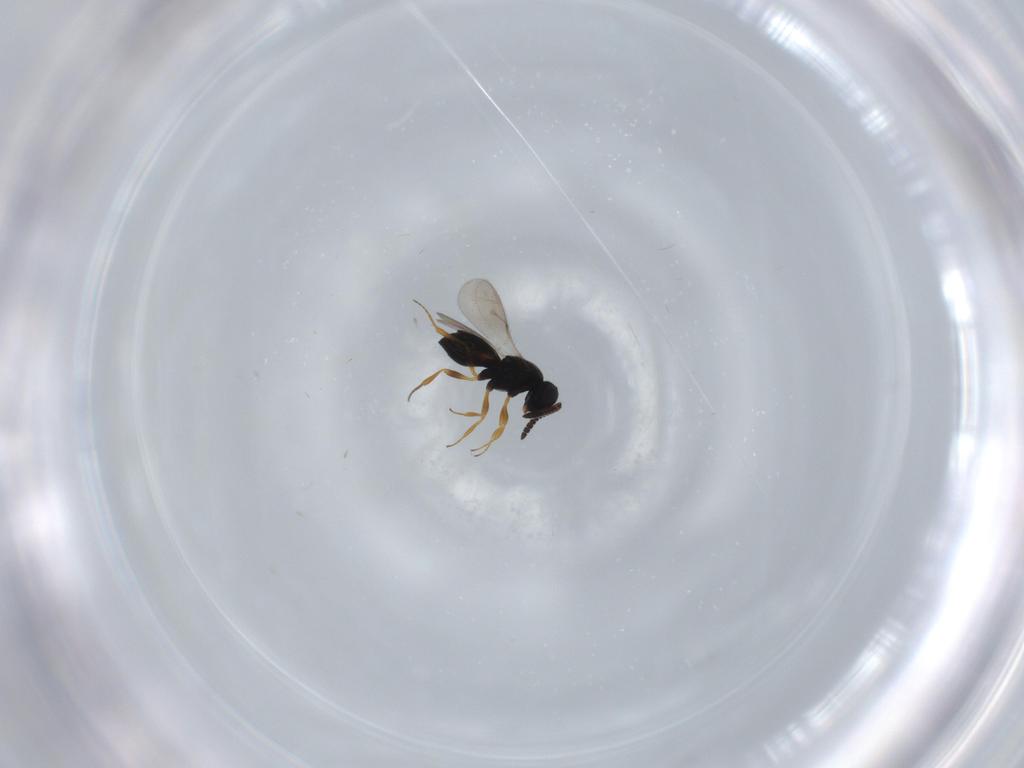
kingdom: Animalia
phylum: Arthropoda
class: Insecta
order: Hymenoptera
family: Scelionidae
